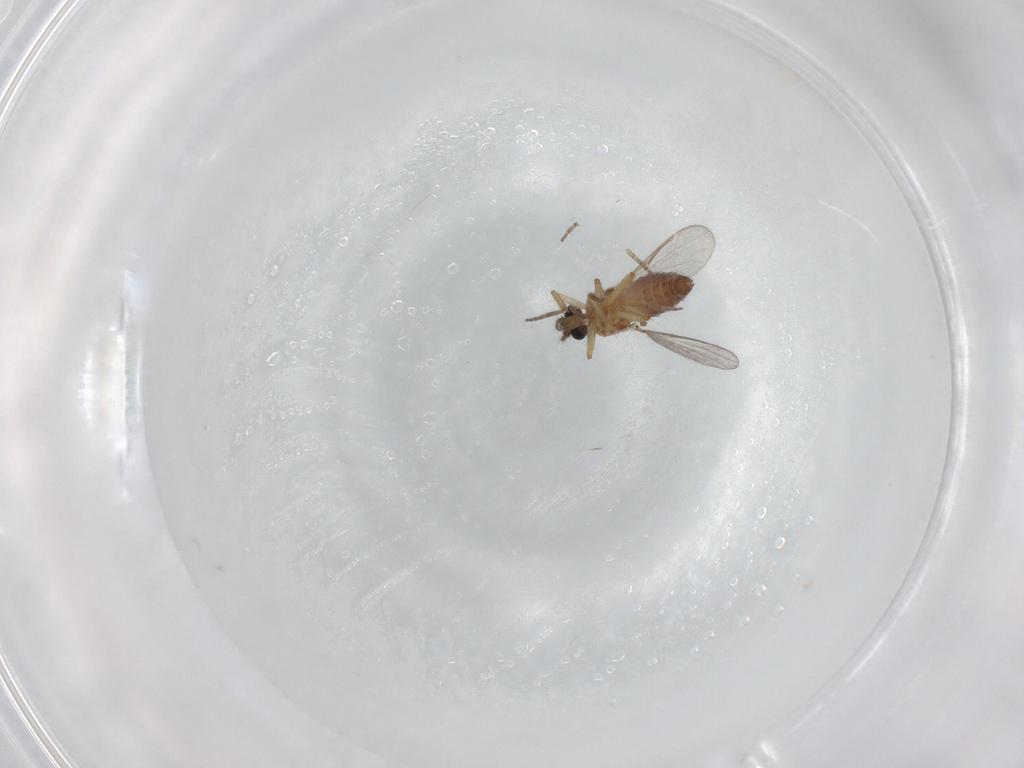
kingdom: Animalia
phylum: Arthropoda
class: Insecta
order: Diptera
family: Ceratopogonidae
